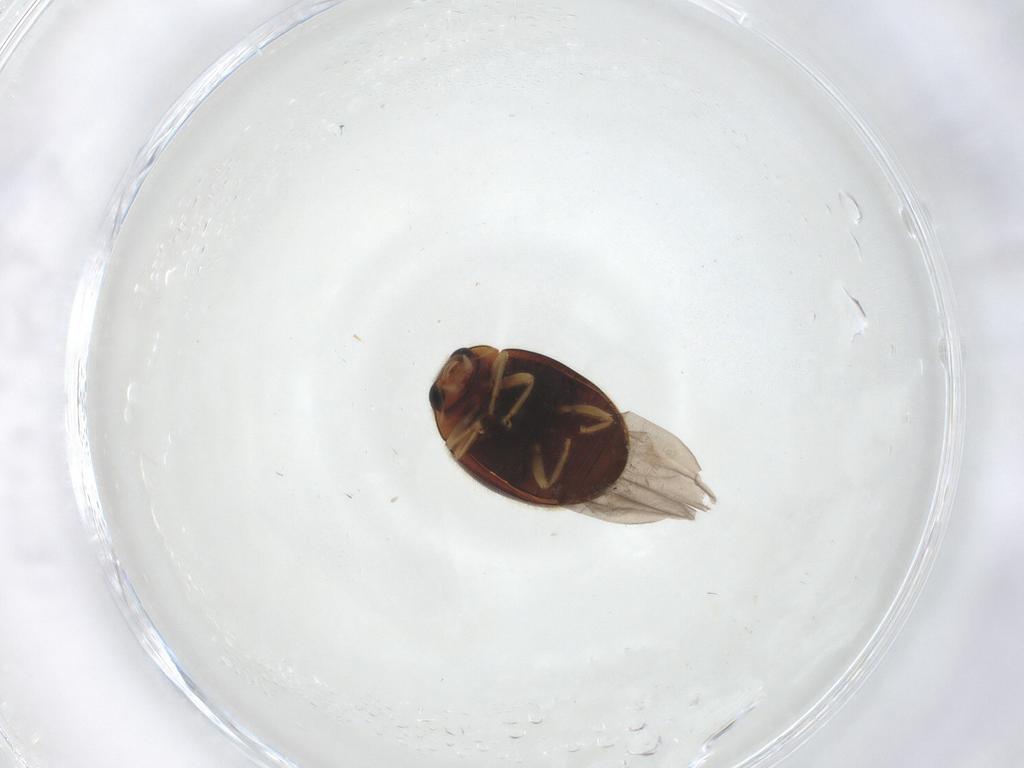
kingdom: Animalia
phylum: Arthropoda
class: Insecta
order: Coleoptera
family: Coccinellidae
